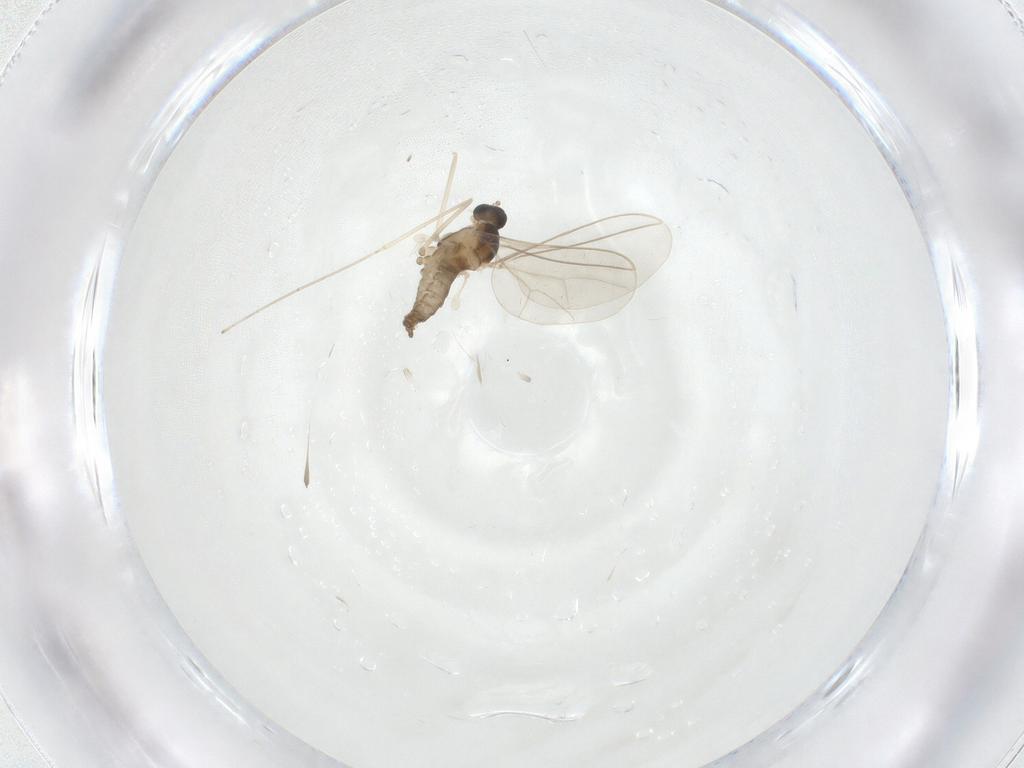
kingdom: Animalia
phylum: Arthropoda
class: Insecta
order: Diptera
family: Cecidomyiidae
